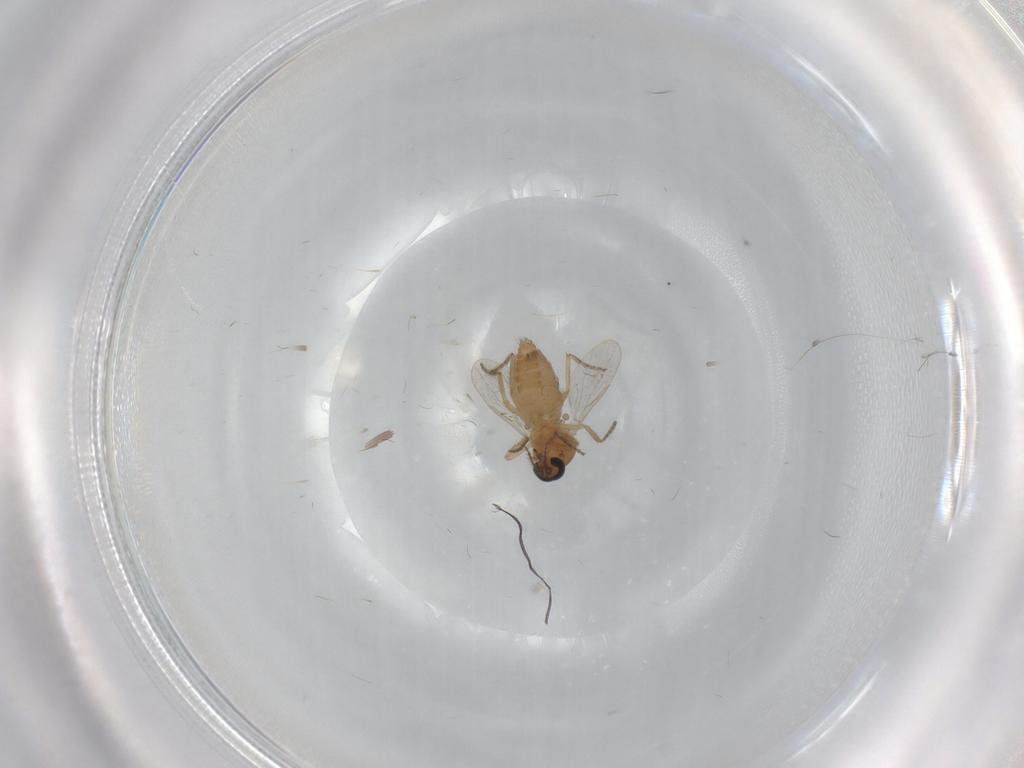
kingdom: Animalia
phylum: Arthropoda
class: Insecta
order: Diptera
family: Ceratopogonidae
